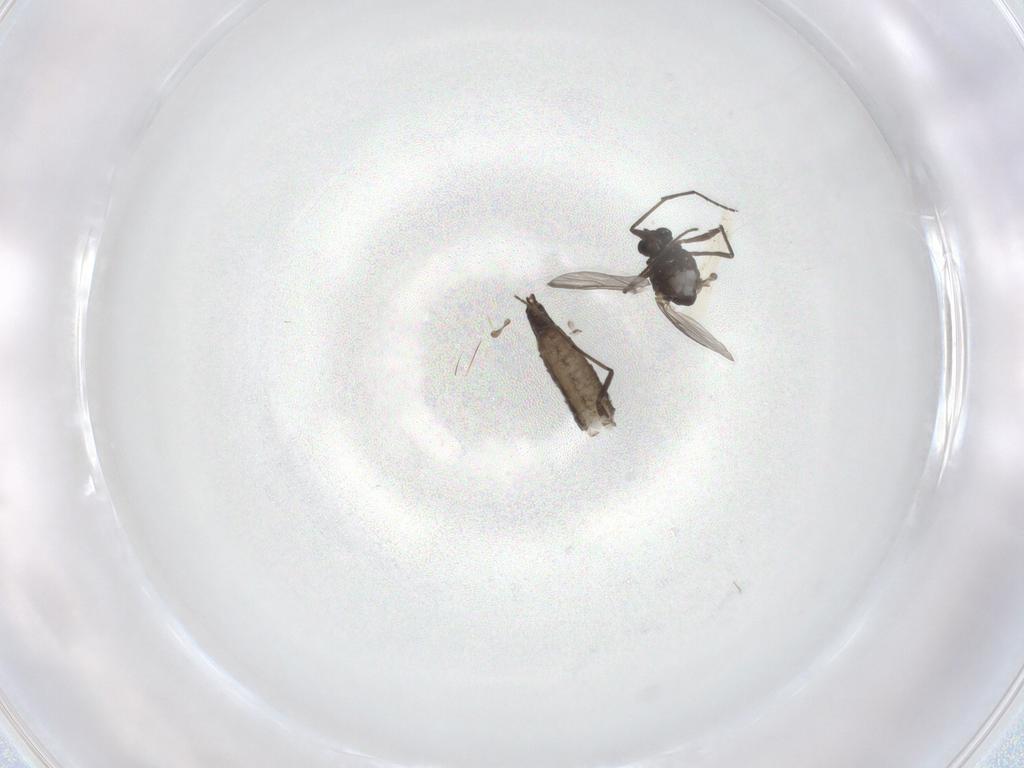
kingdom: Animalia
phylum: Arthropoda
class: Insecta
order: Diptera
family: Chironomidae
